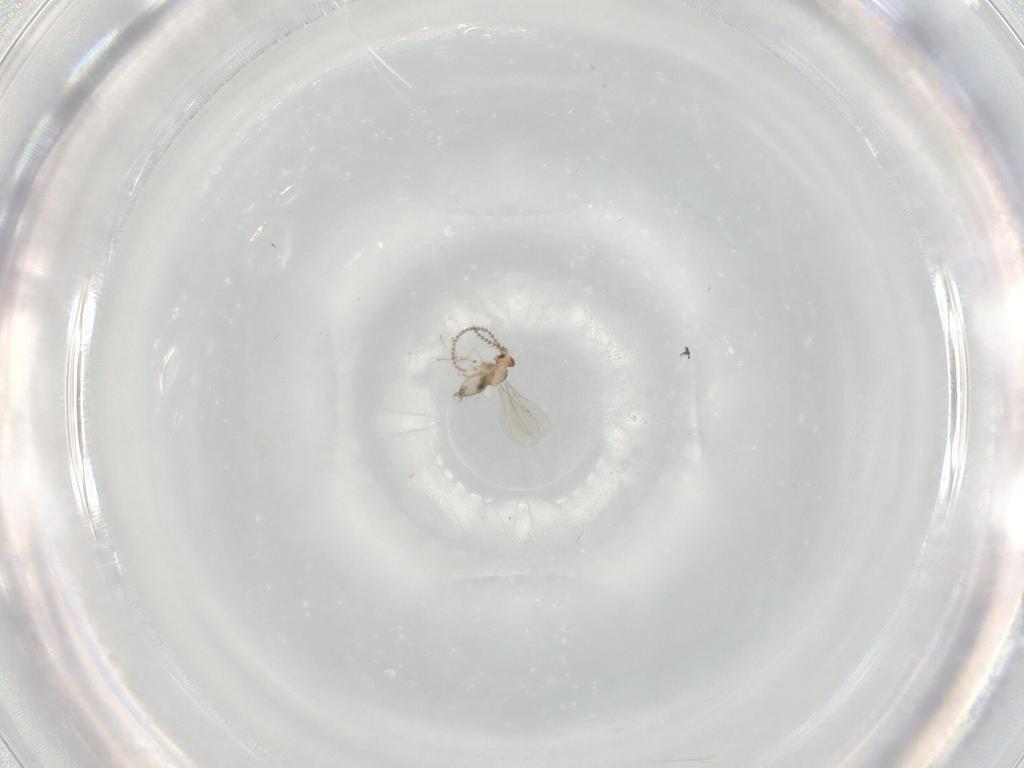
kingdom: Animalia
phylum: Arthropoda
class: Insecta
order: Diptera
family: Cecidomyiidae
